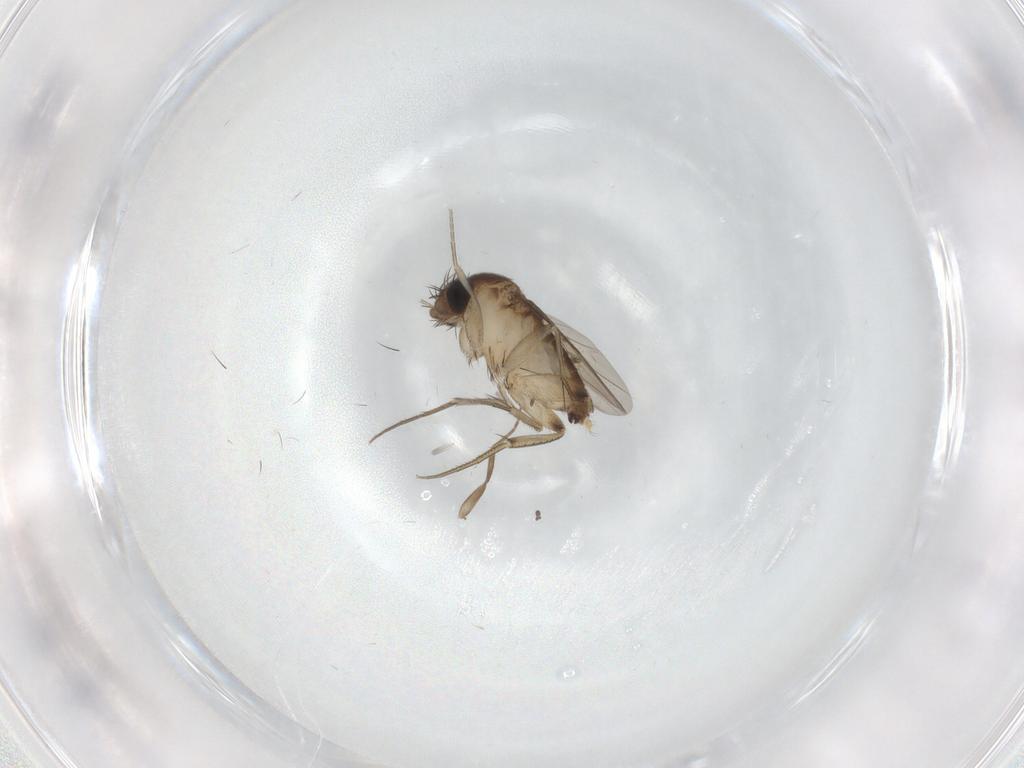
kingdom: Animalia
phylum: Arthropoda
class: Insecta
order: Diptera
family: Phoridae
